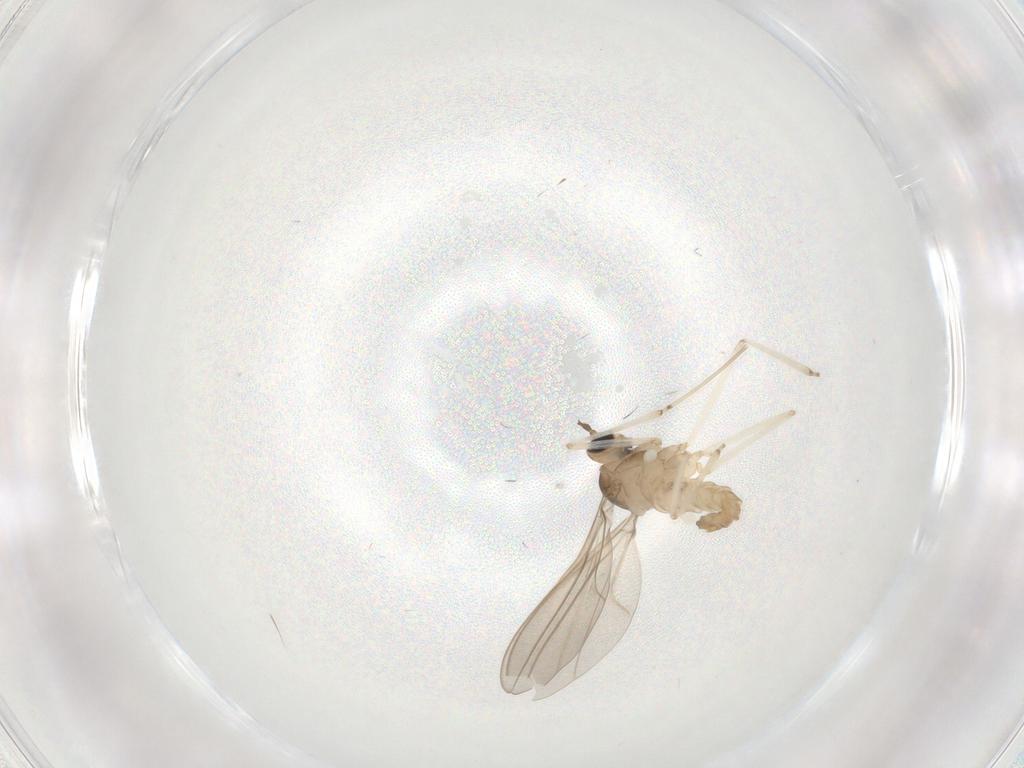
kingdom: Animalia
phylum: Arthropoda
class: Insecta
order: Diptera
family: Cecidomyiidae
